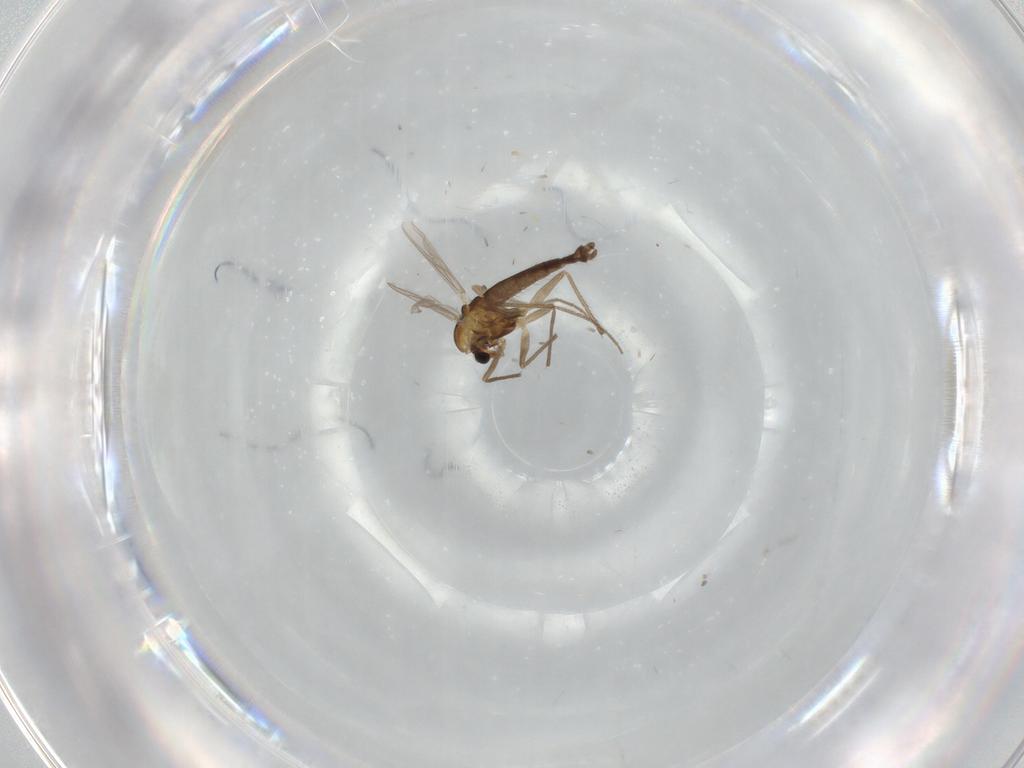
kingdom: Animalia
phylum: Arthropoda
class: Insecta
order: Diptera
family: Chironomidae
